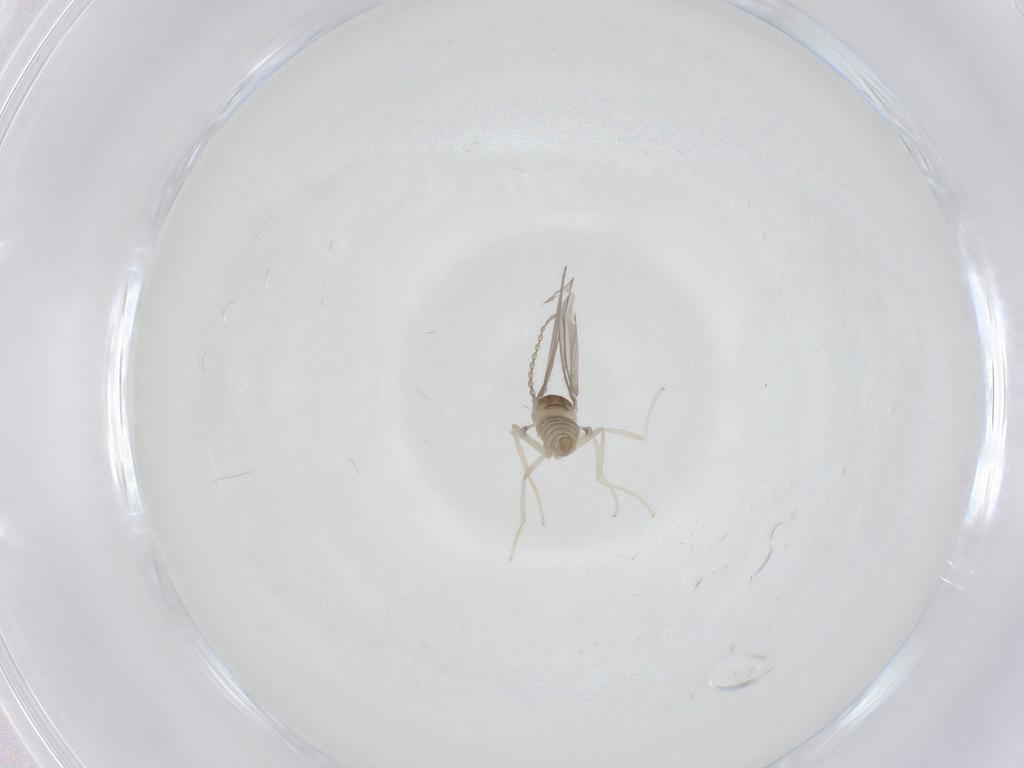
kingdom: Animalia
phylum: Arthropoda
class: Insecta
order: Diptera
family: Cecidomyiidae
